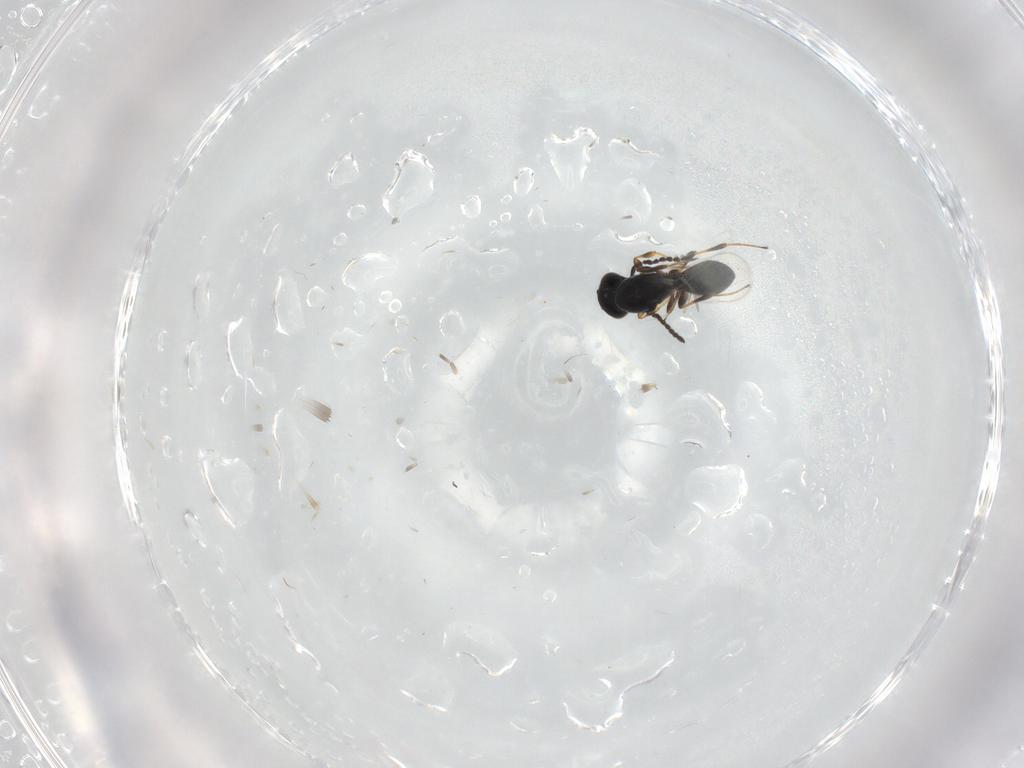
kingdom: Animalia
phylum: Arthropoda
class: Insecta
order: Hymenoptera
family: Platygastridae
